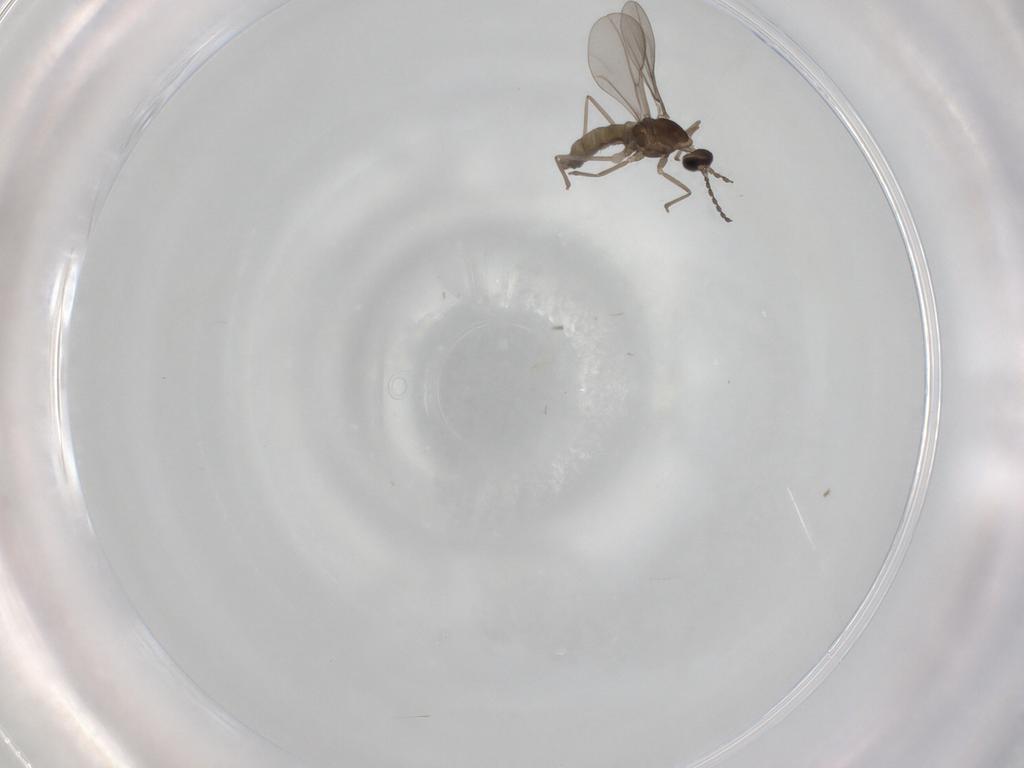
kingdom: Animalia
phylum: Arthropoda
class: Insecta
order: Diptera
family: Cecidomyiidae
